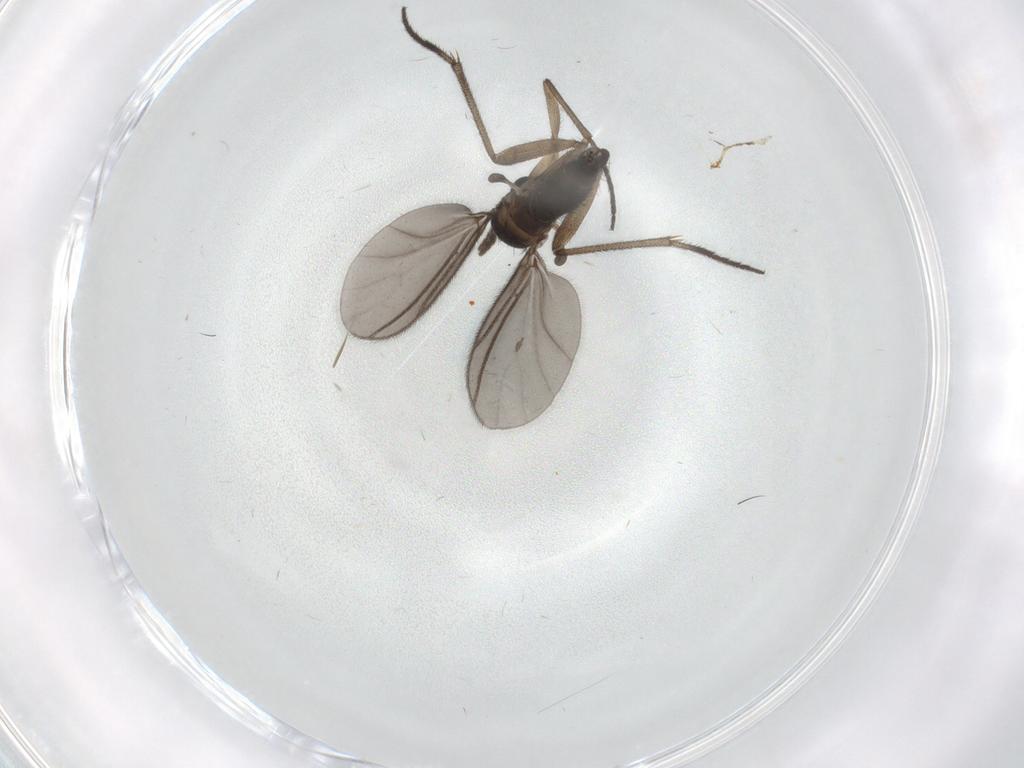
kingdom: Animalia
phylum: Arthropoda
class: Insecta
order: Diptera
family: Sciaridae
